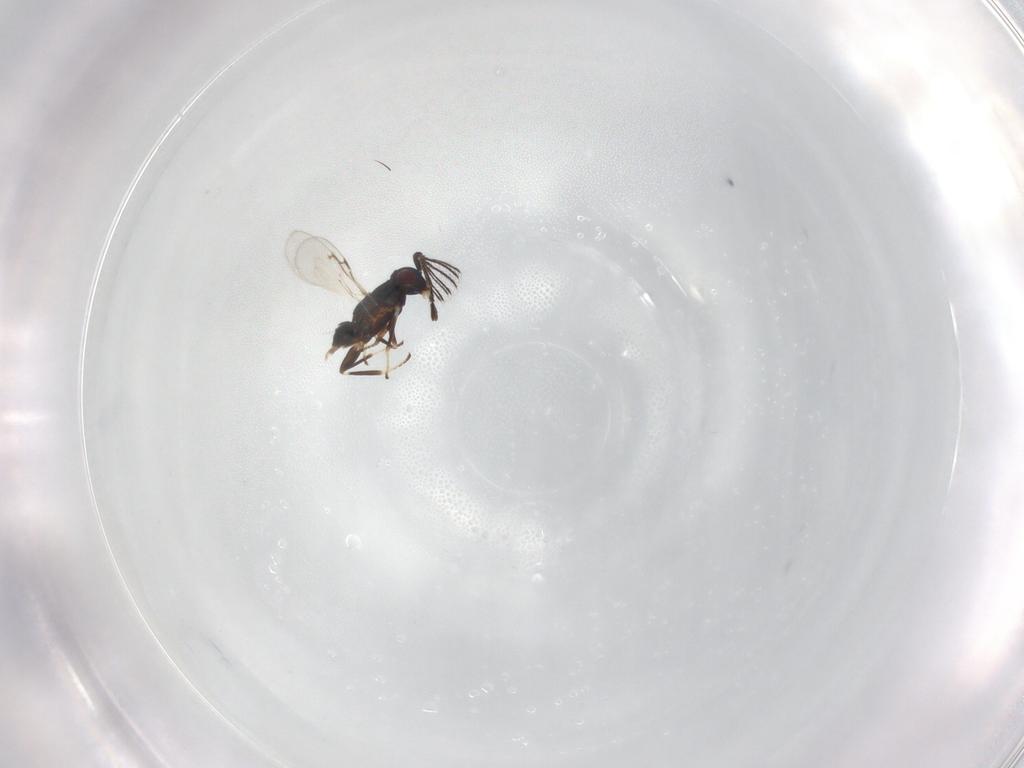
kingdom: Animalia
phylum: Arthropoda
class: Insecta
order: Hymenoptera
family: Encyrtidae
